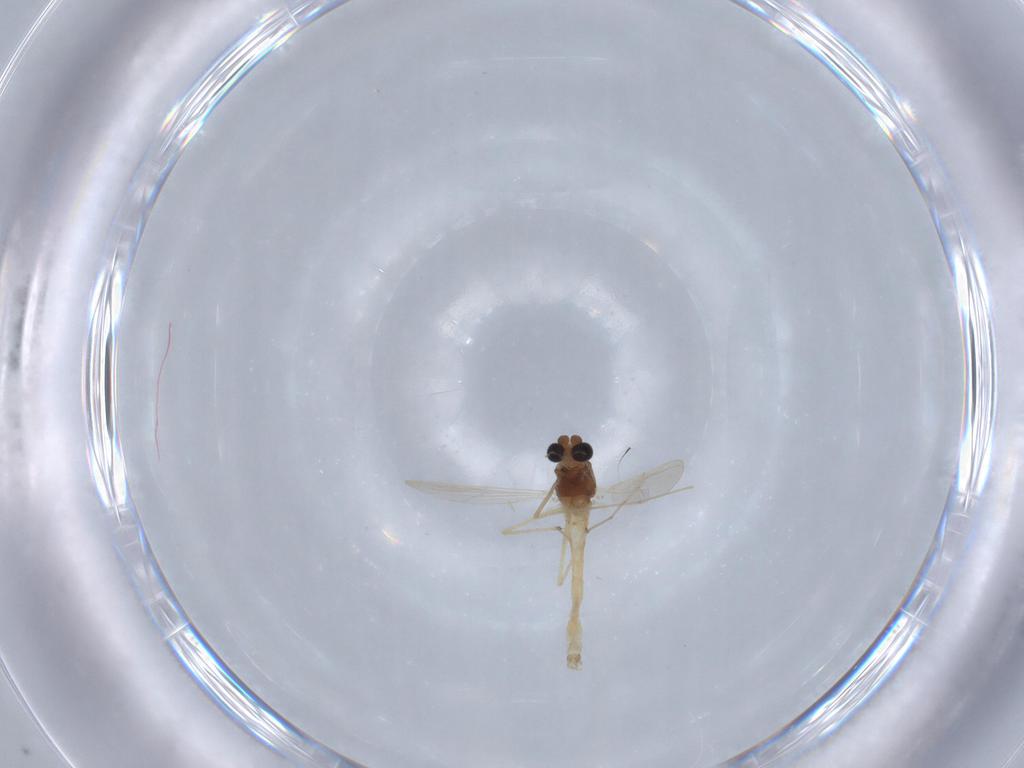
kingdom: Animalia
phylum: Arthropoda
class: Insecta
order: Diptera
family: Chironomidae
